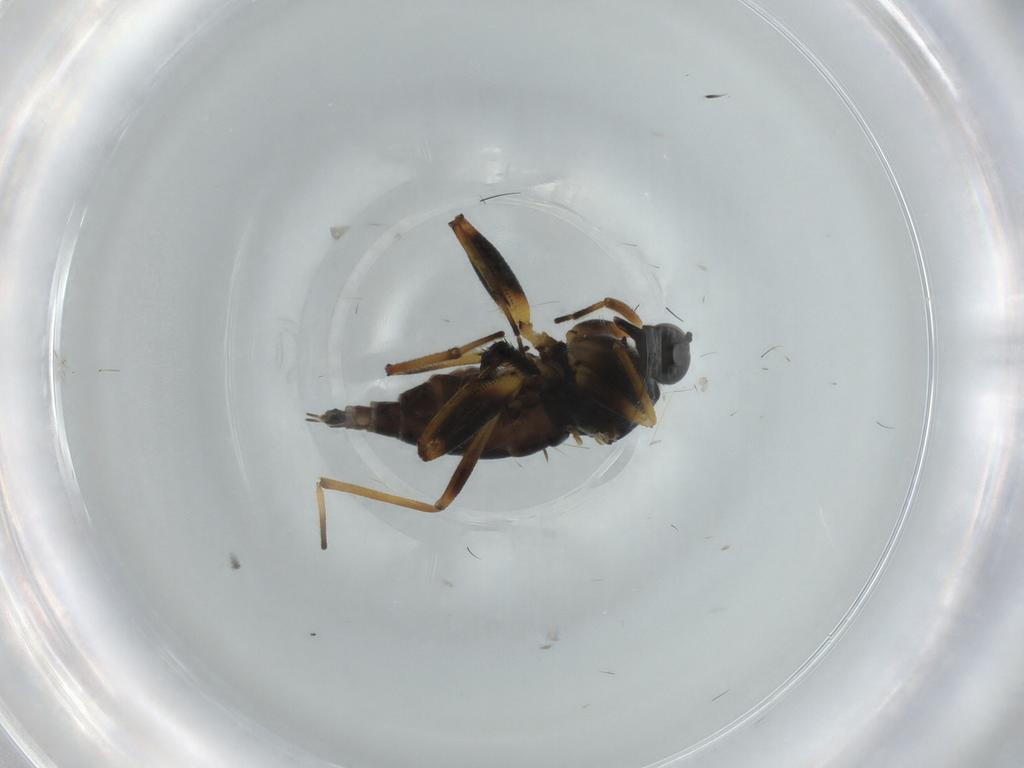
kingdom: Animalia
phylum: Arthropoda
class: Insecta
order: Diptera
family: Hybotidae
